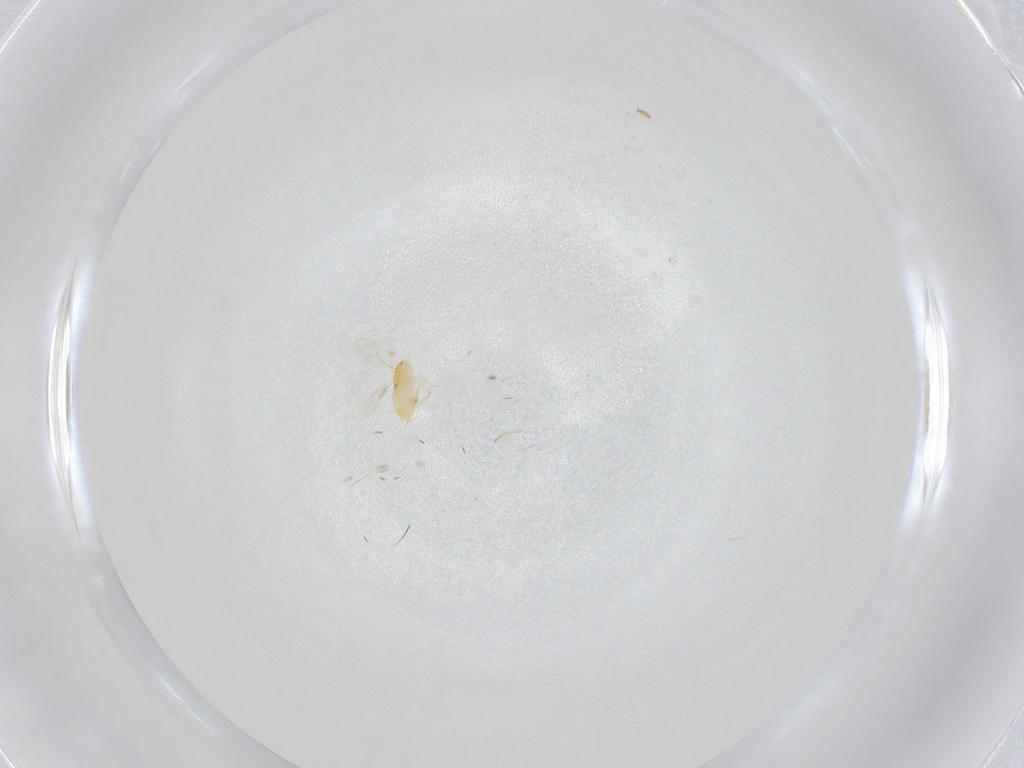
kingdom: Animalia
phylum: Arthropoda
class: Insecta
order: Hymenoptera
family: Aphelinidae
